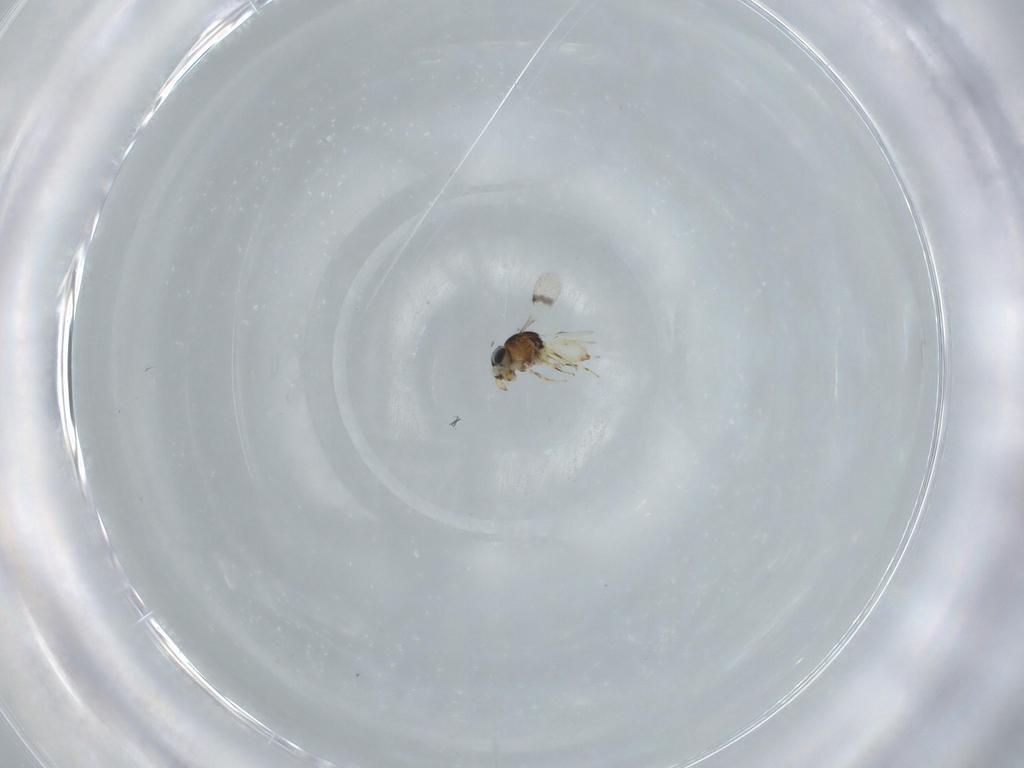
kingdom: Animalia
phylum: Arthropoda
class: Insecta
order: Hymenoptera
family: Scelionidae
